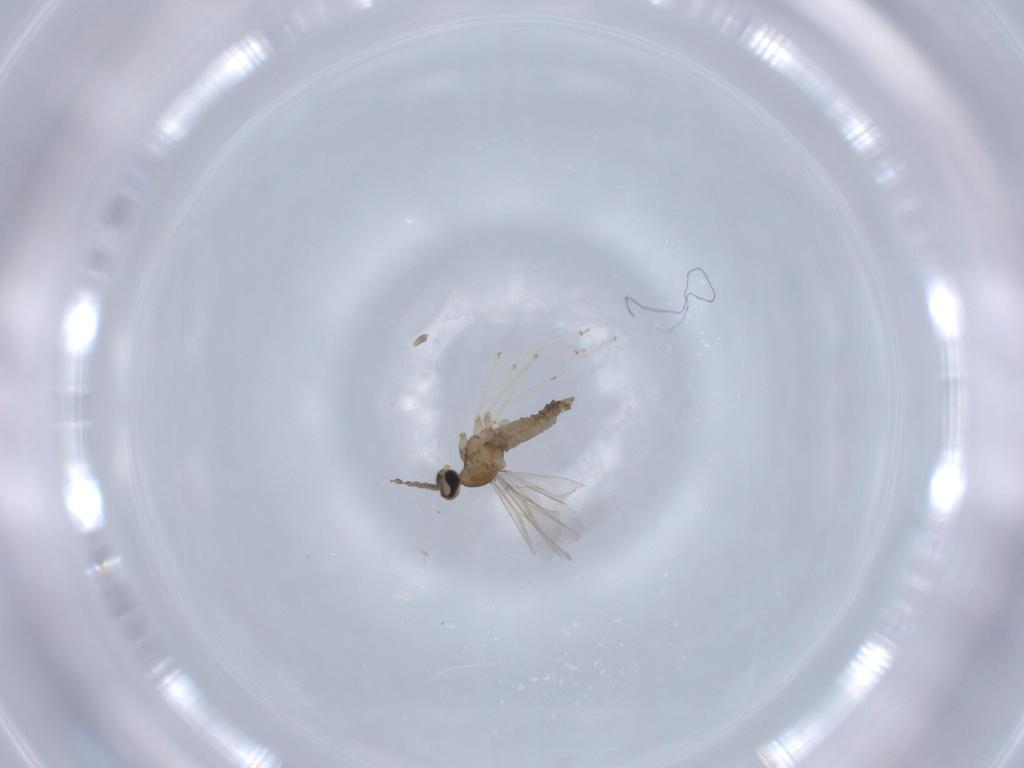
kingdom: Animalia
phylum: Arthropoda
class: Insecta
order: Diptera
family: Cecidomyiidae
